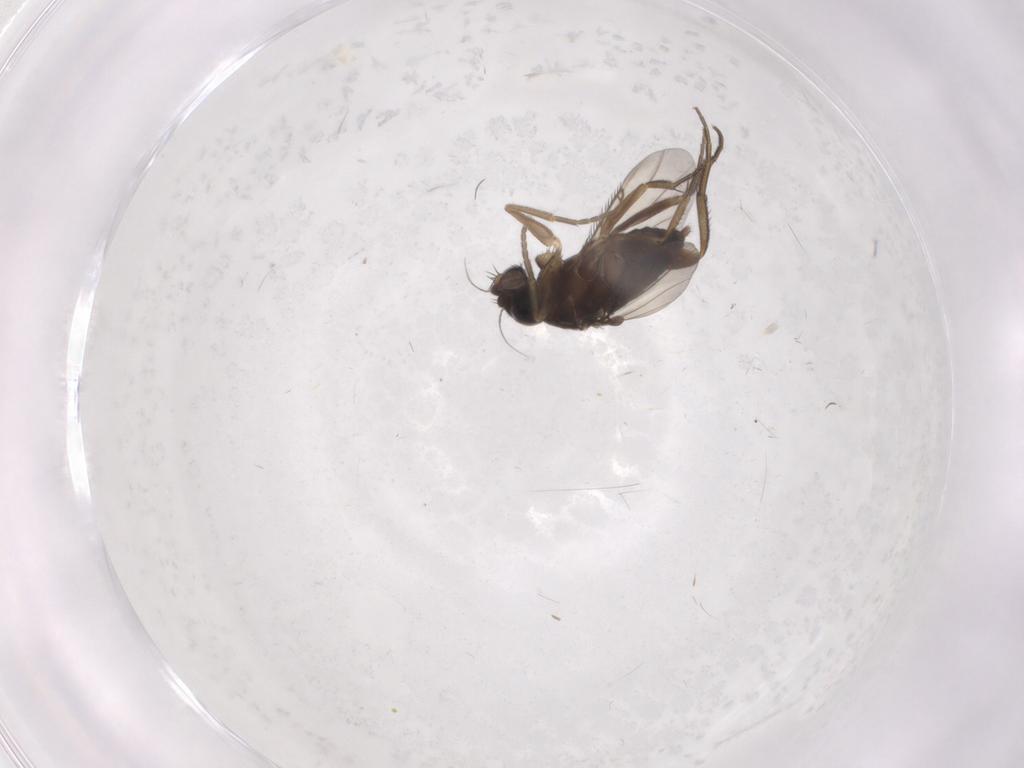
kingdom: Animalia
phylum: Arthropoda
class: Insecta
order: Diptera
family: Phoridae
